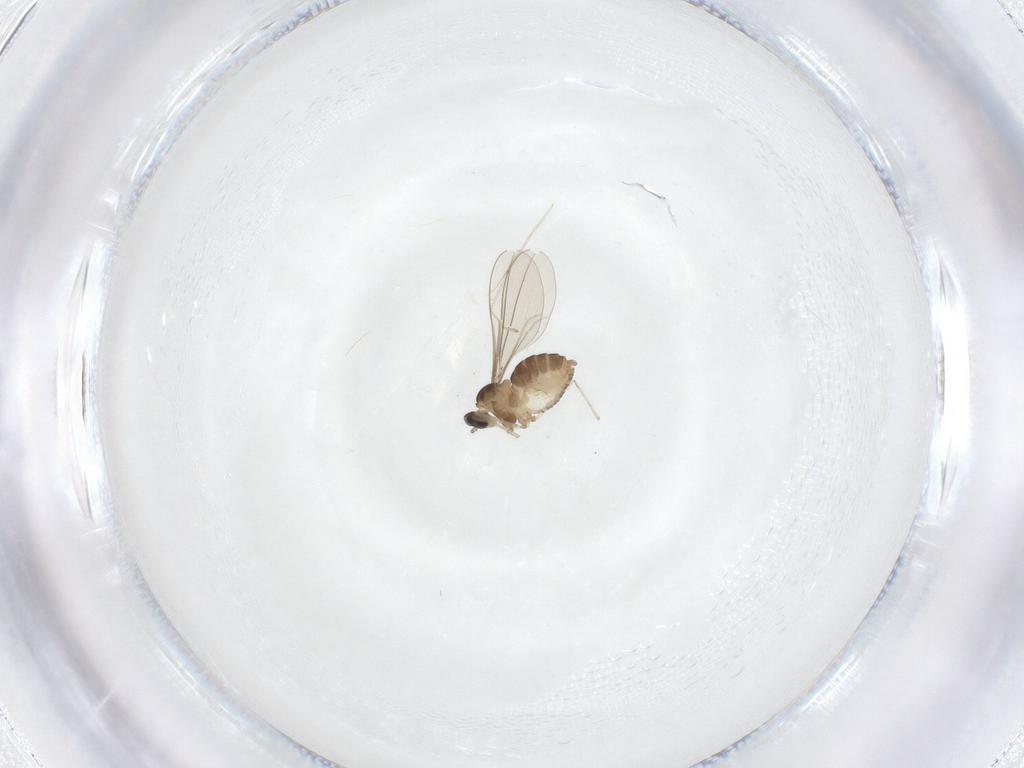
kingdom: Animalia
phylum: Arthropoda
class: Insecta
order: Diptera
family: Cecidomyiidae
